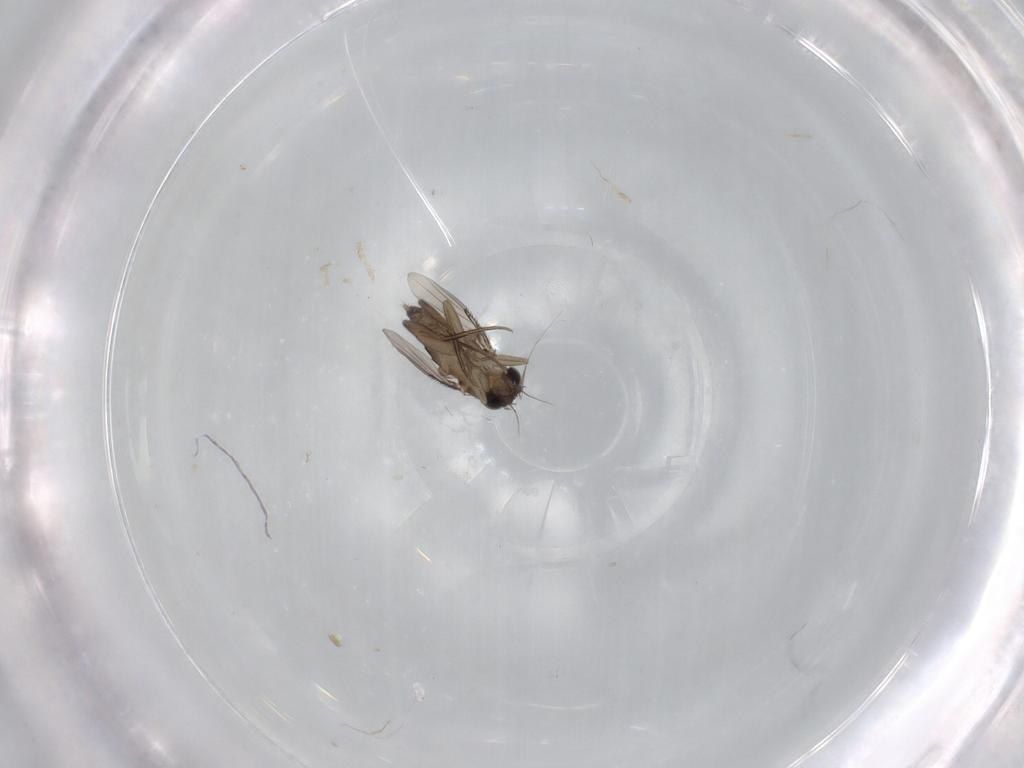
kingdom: Animalia
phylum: Arthropoda
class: Insecta
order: Diptera
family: Phoridae
